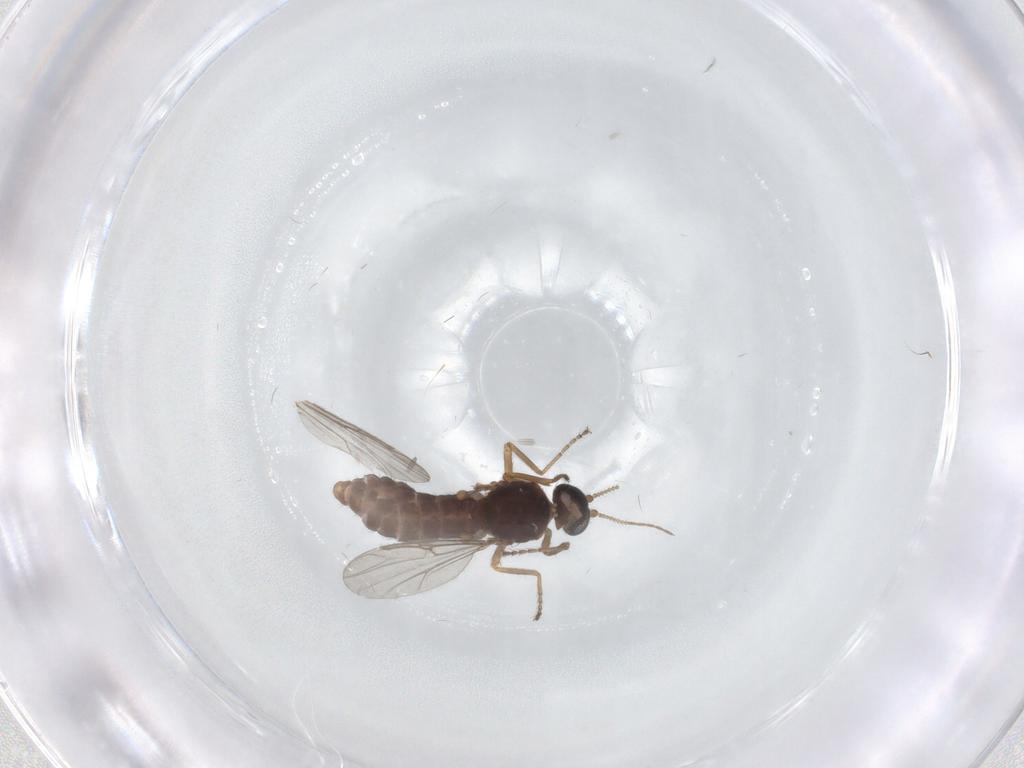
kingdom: Animalia
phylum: Arthropoda
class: Insecta
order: Diptera
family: Ceratopogonidae
